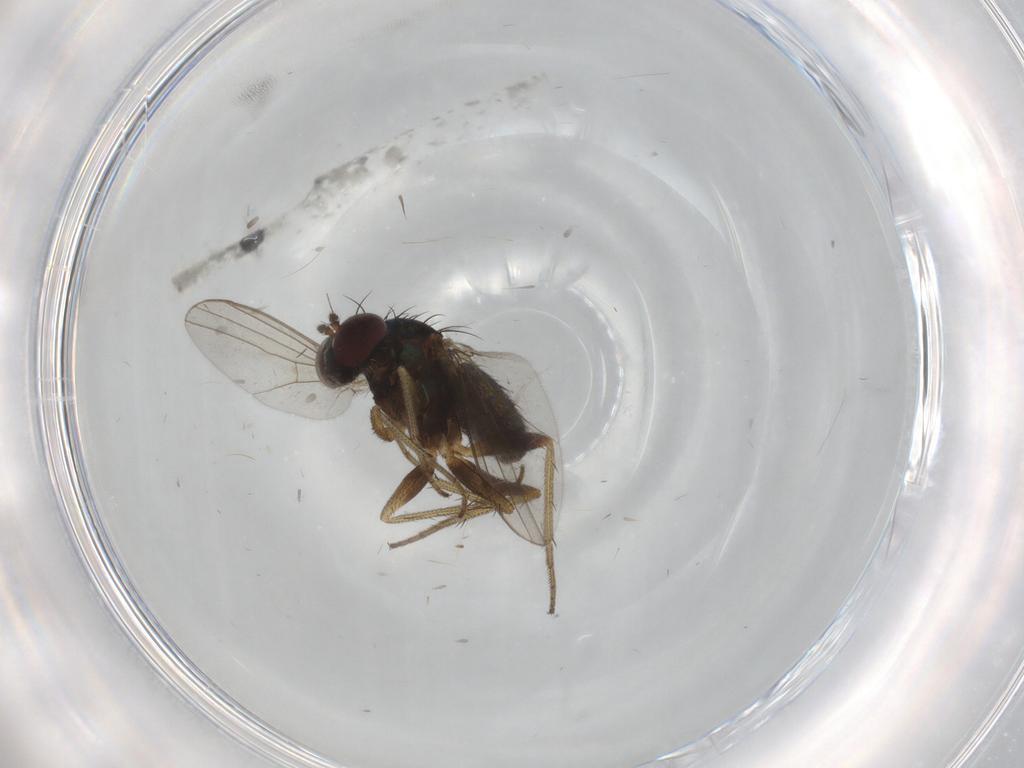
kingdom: Animalia
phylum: Arthropoda
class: Insecta
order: Diptera
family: Dolichopodidae
